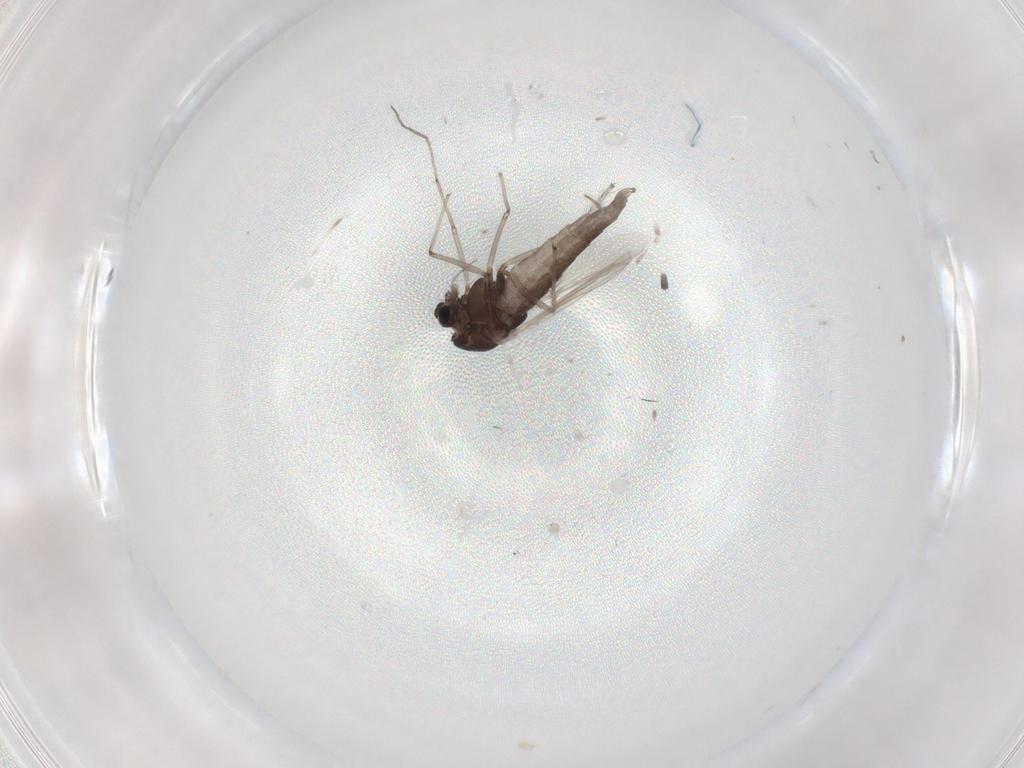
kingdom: Animalia
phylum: Arthropoda
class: Insecta
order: Diptera
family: Chironomidae
